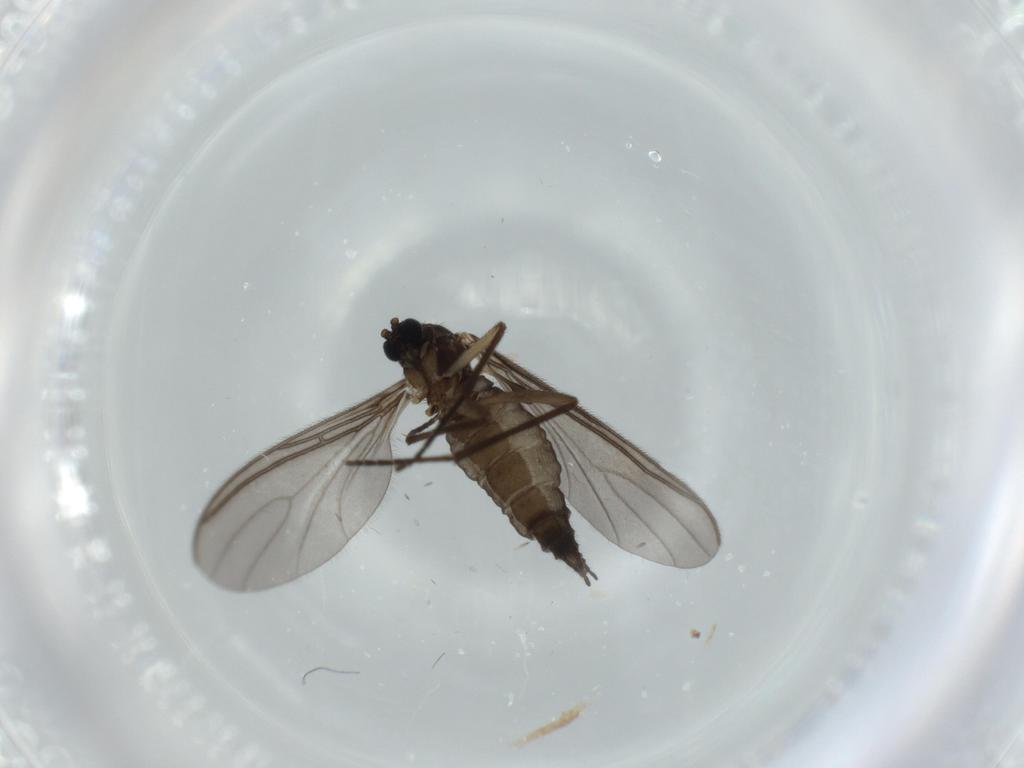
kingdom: Animalia
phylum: Arthropoda
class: Insecta
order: Diptera
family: Sciaridae
